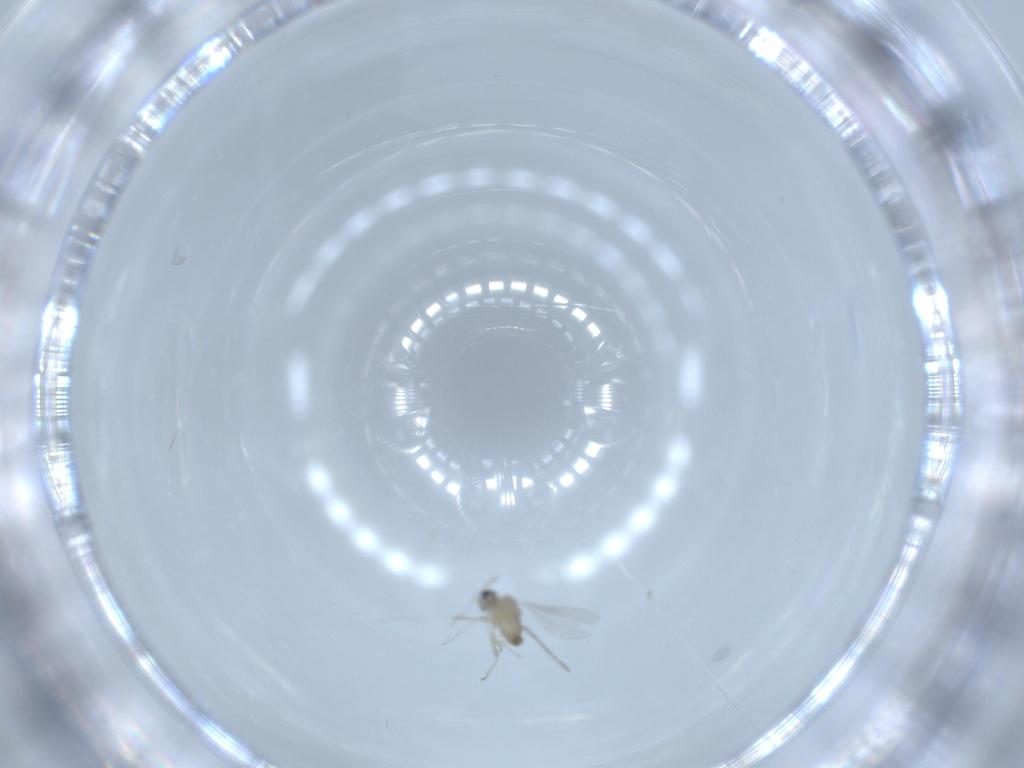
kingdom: Animalia
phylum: Arthropoda
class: Insecta
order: Diptera
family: Cecidomyiidae
